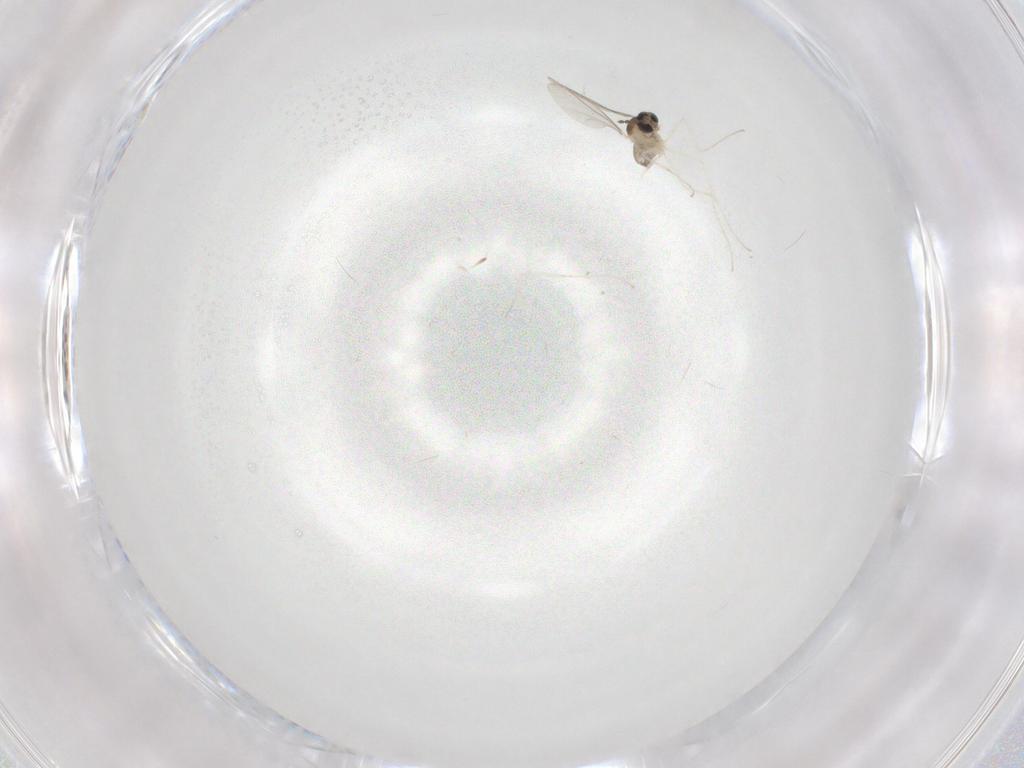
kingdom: Animalia
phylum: Arthropoda
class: Insecta
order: Diptera
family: Cecidomyiidae
